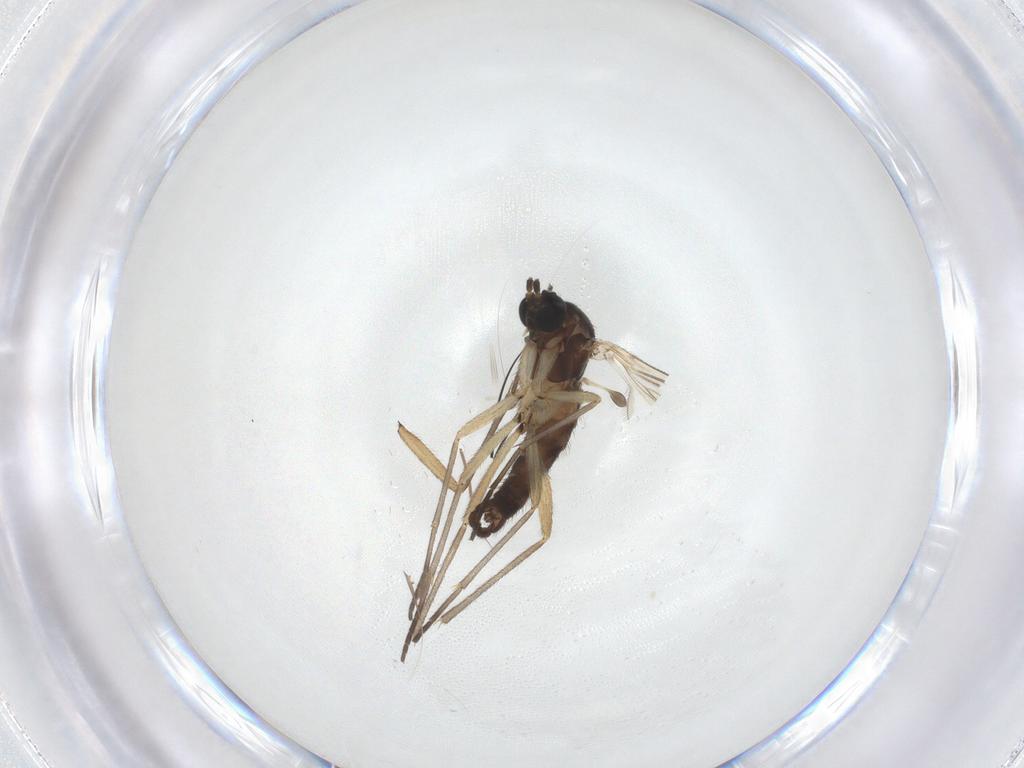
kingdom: Animalia
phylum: Arthropoda
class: Insecta
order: Diptera
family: Sciaridae
